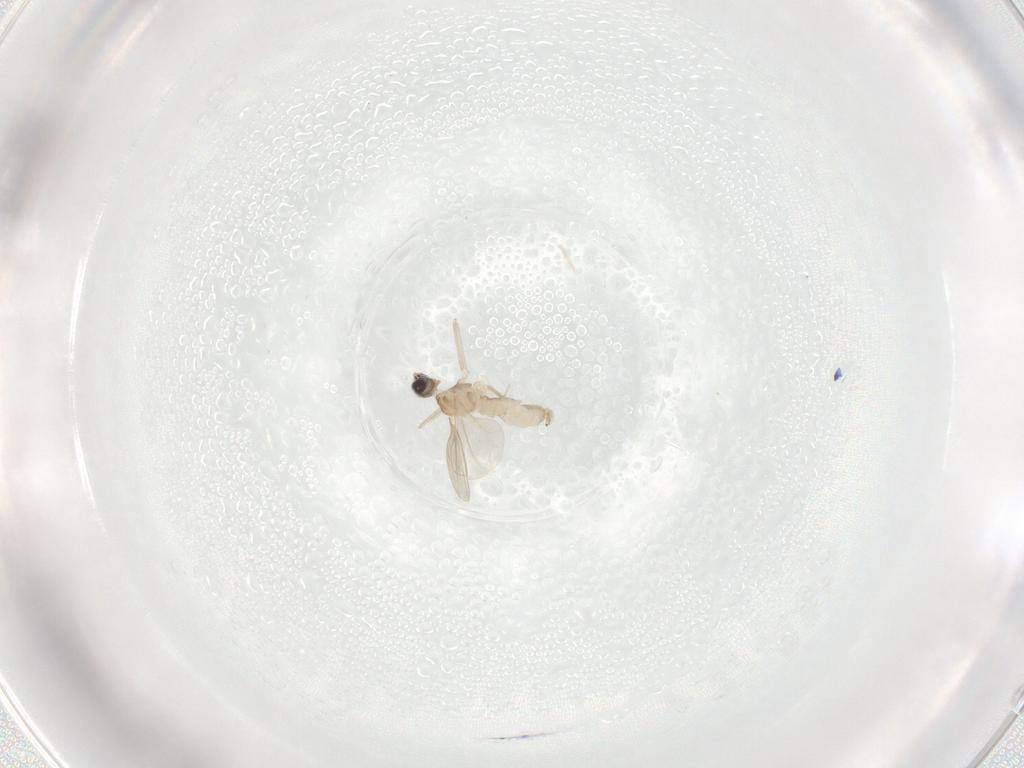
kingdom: Animalia
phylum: Arthropoda
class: Insecta
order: Diptera
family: Cecidomyiidae
